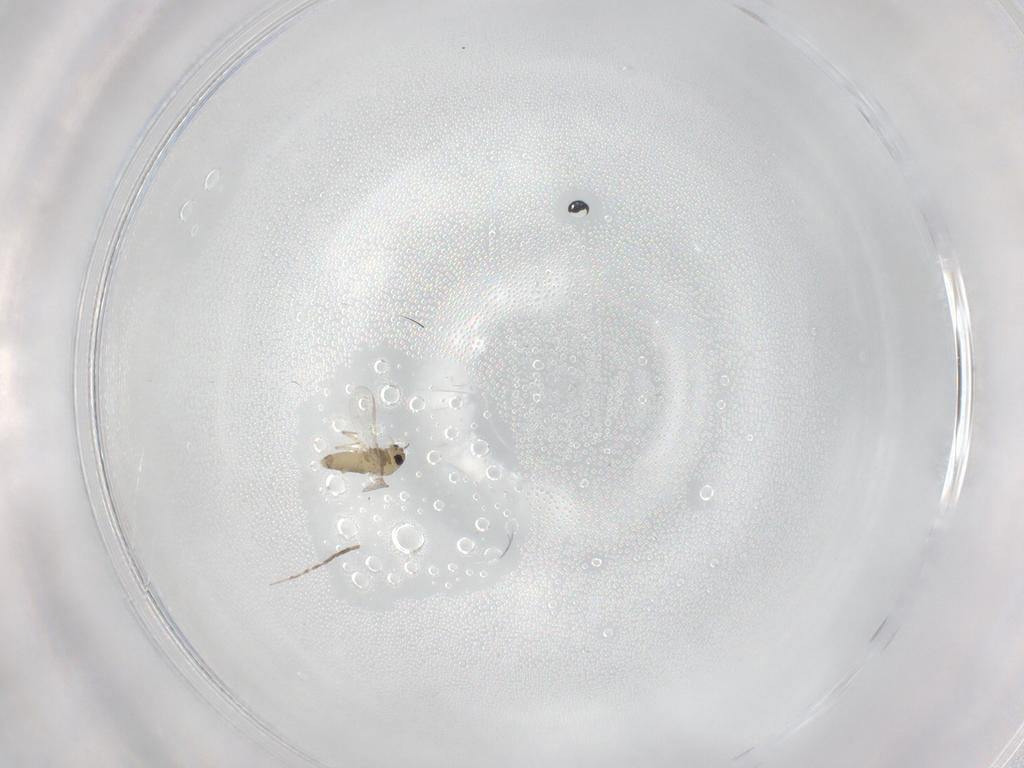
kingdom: Animalia
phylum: Arthropoda
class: Insecta
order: Diptera
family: Chironomidae
